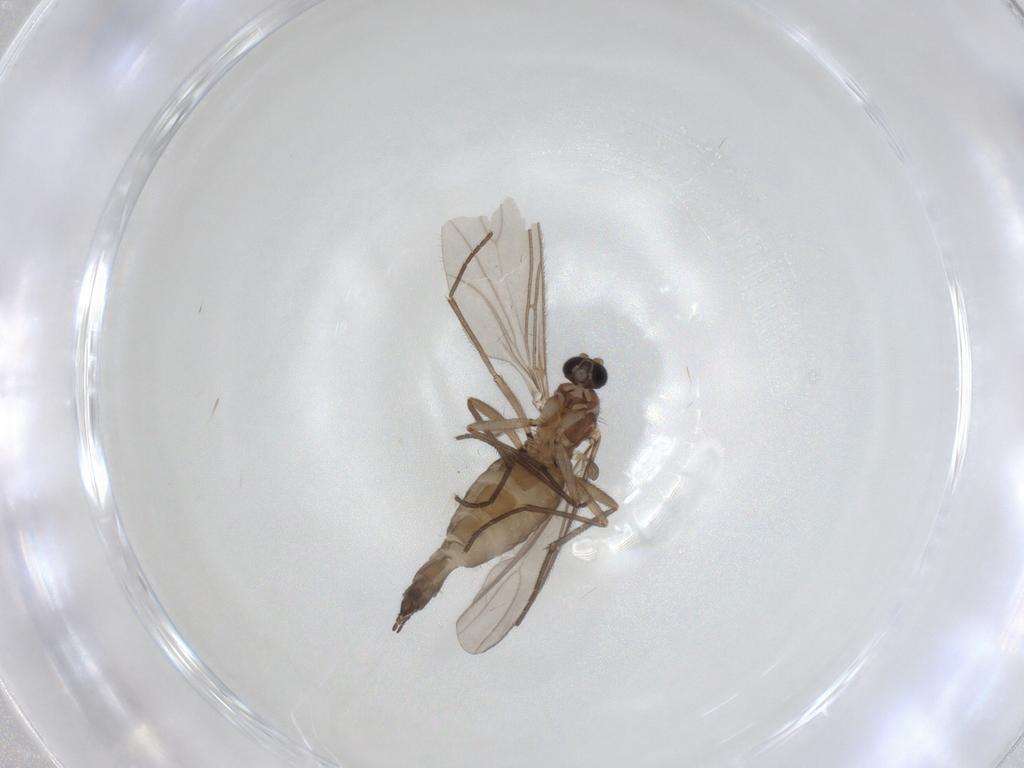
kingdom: Animalia
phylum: Arthropoda
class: Insecta
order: Diptera
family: Sciaridae
